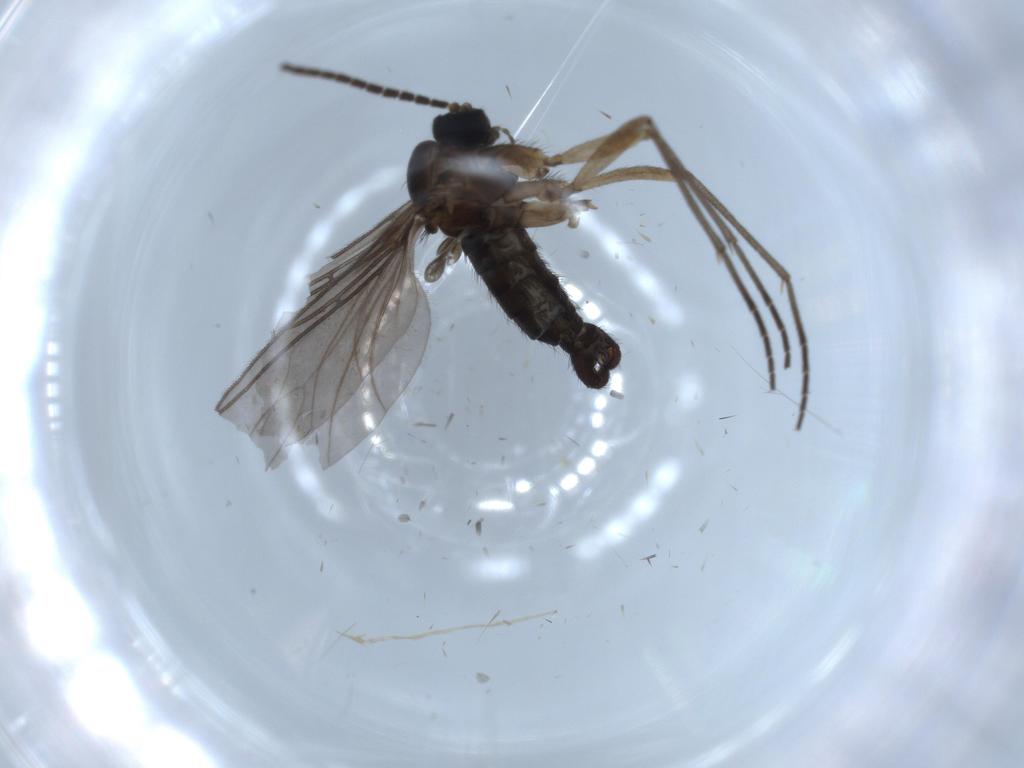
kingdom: Animalia
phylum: Arthropoda
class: Insecta
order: Diptera
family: Sciaridae
